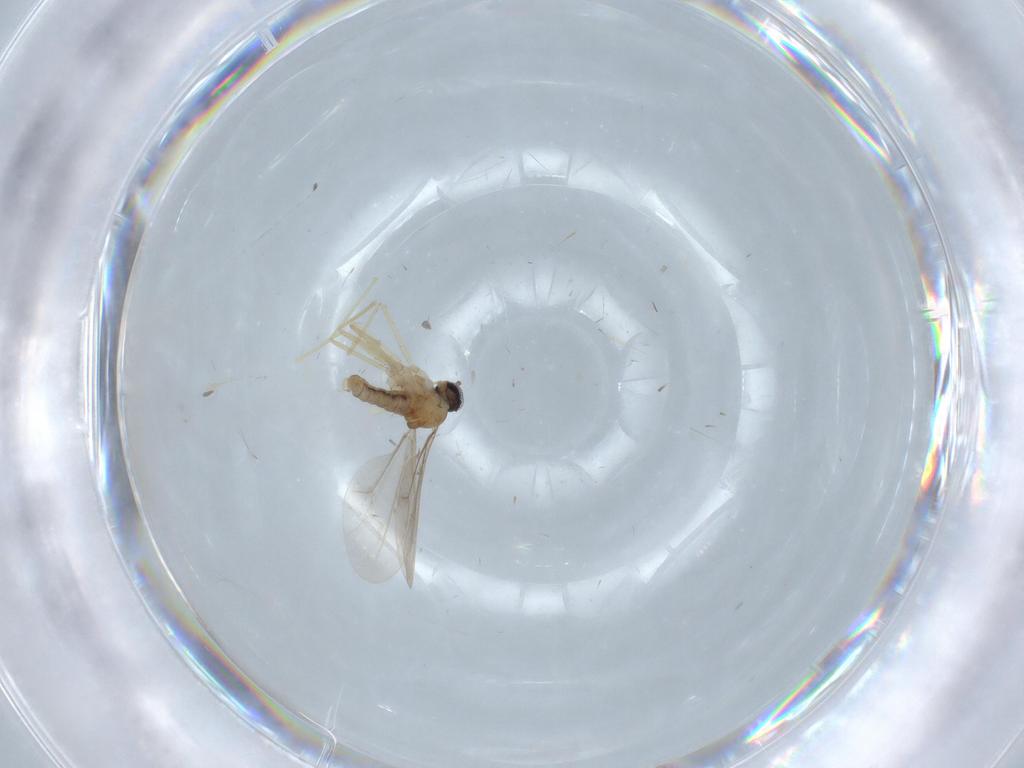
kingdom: Animalia
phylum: Arthropoda
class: Insecta
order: Diptera
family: Cecidomyiidae
